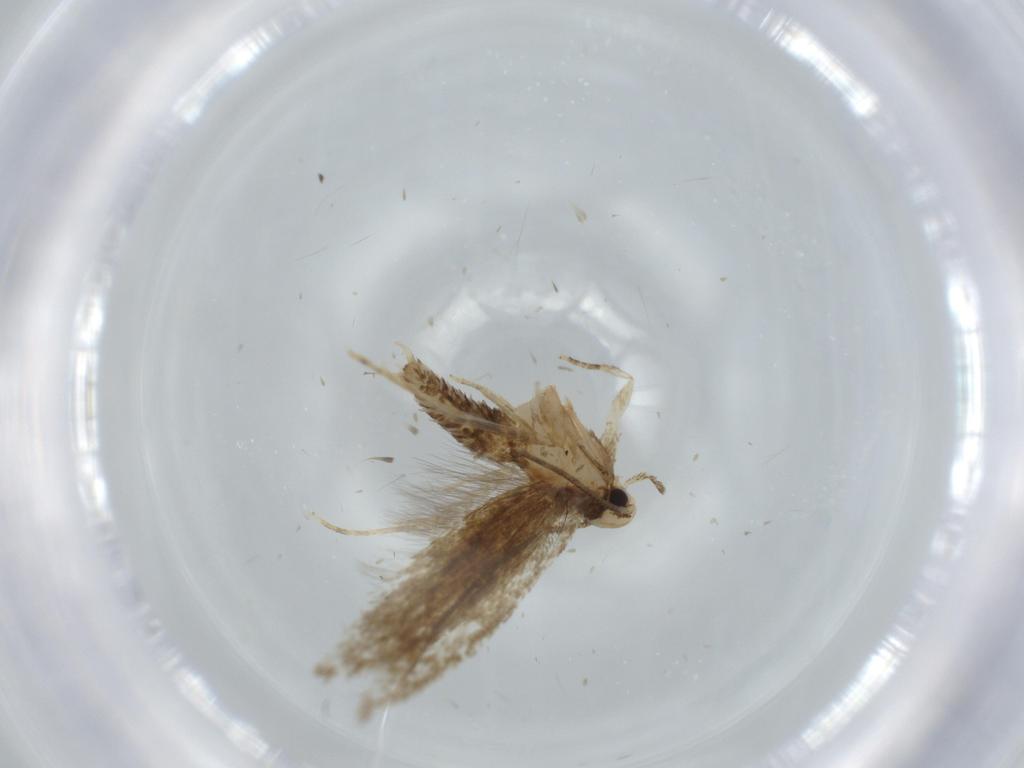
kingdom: Animalia
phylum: Arthropoda
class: Insecta
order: Lepidoptera
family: Tineidae
